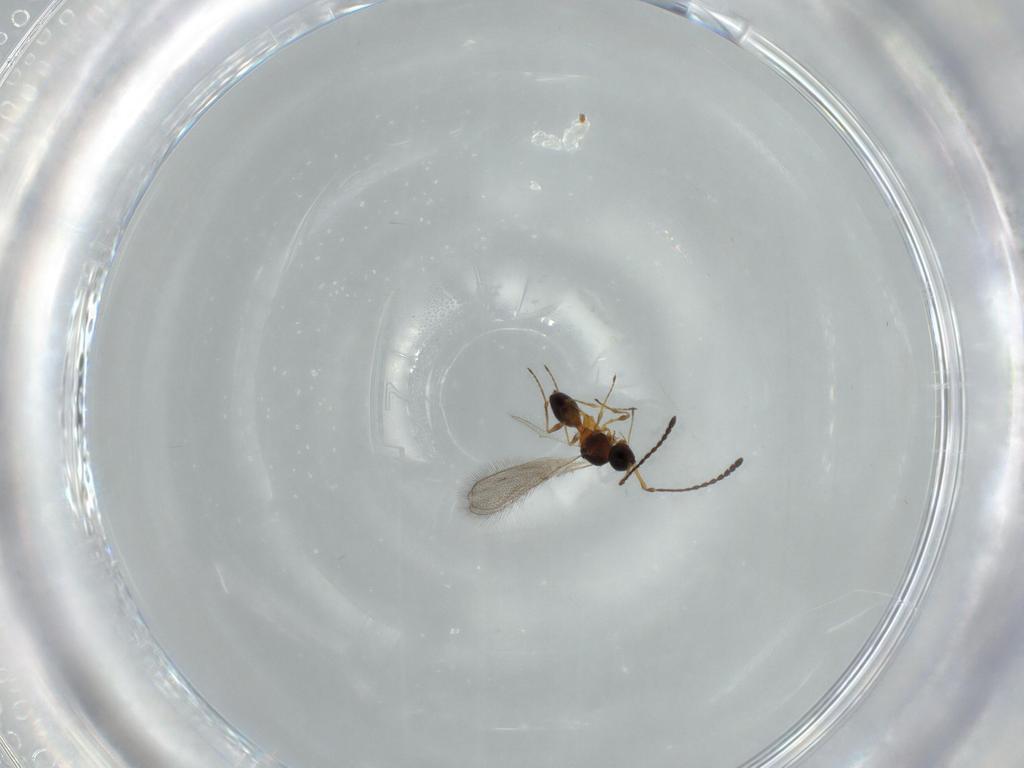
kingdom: Animalia
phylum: Arthropoda
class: Insecta
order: Hymenoptera
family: Diapriidae
